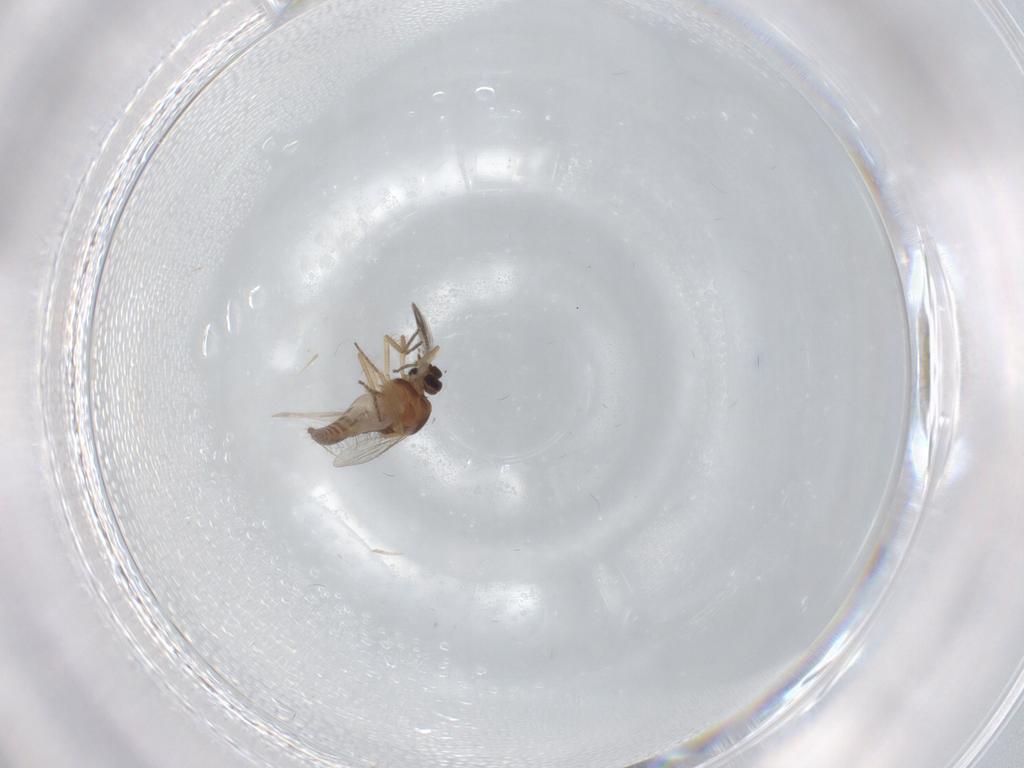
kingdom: Animalia
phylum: Arthropoda
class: Insecta
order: Diptera
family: Ceratopogonidae
